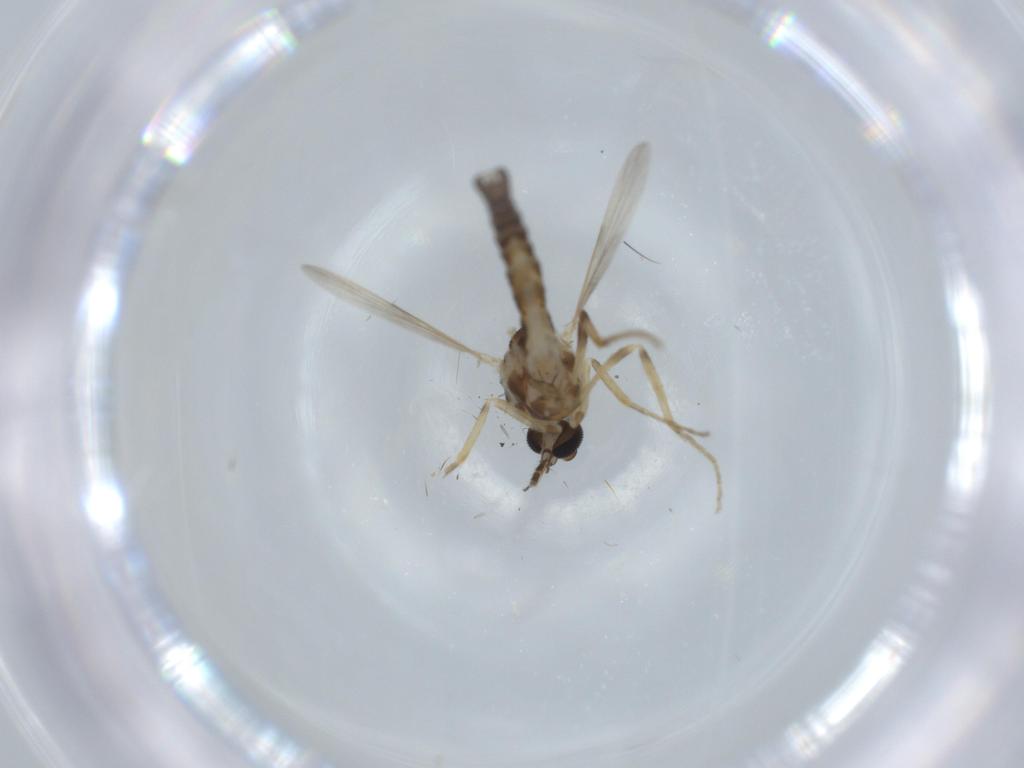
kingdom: Animalia
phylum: Arthropoda
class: Insecta
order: Diptera
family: Ceratopogonidae
